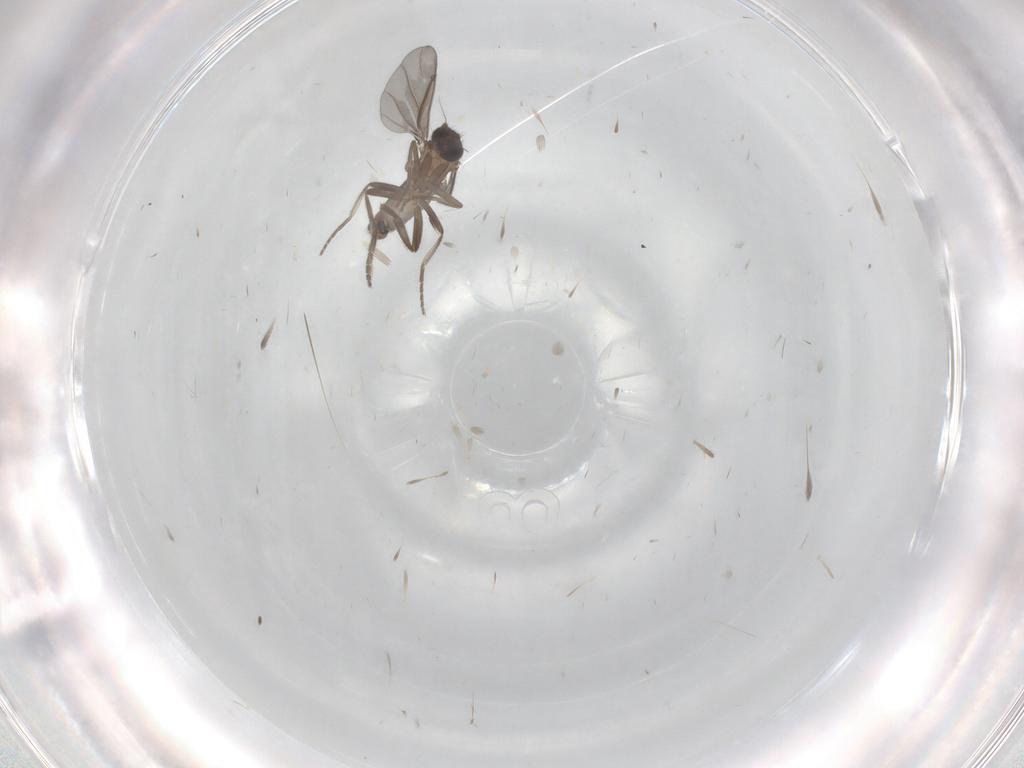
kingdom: Animalia
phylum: Arthropoda
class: Insecta
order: Diptera
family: Phoridae
